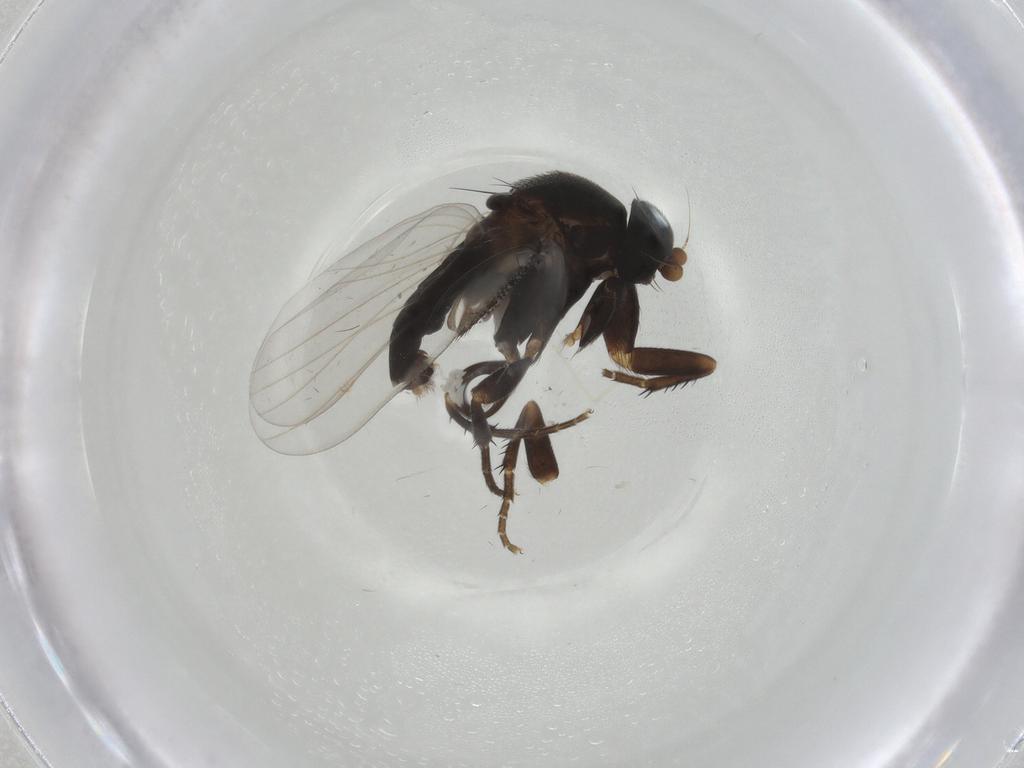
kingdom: Animalia
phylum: Arthropoda
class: Insecta
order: Diptera
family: Cecidomyiidae
